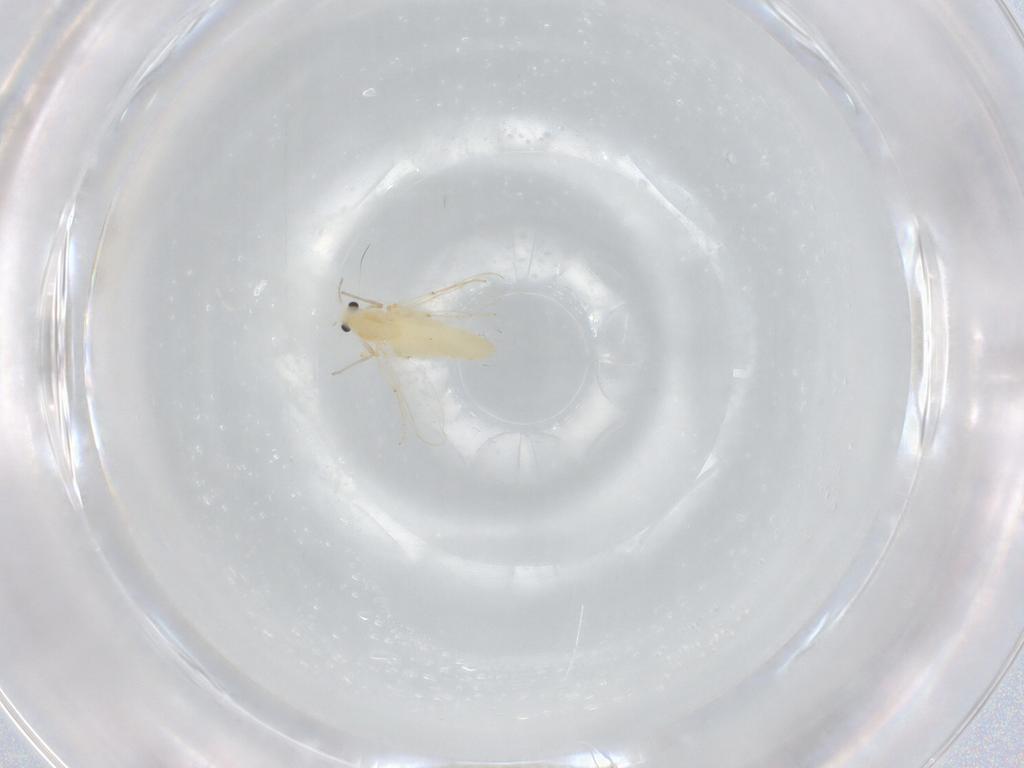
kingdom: Animalia
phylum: Arthropoda
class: Insecta
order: Diptera
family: Chironomidae
